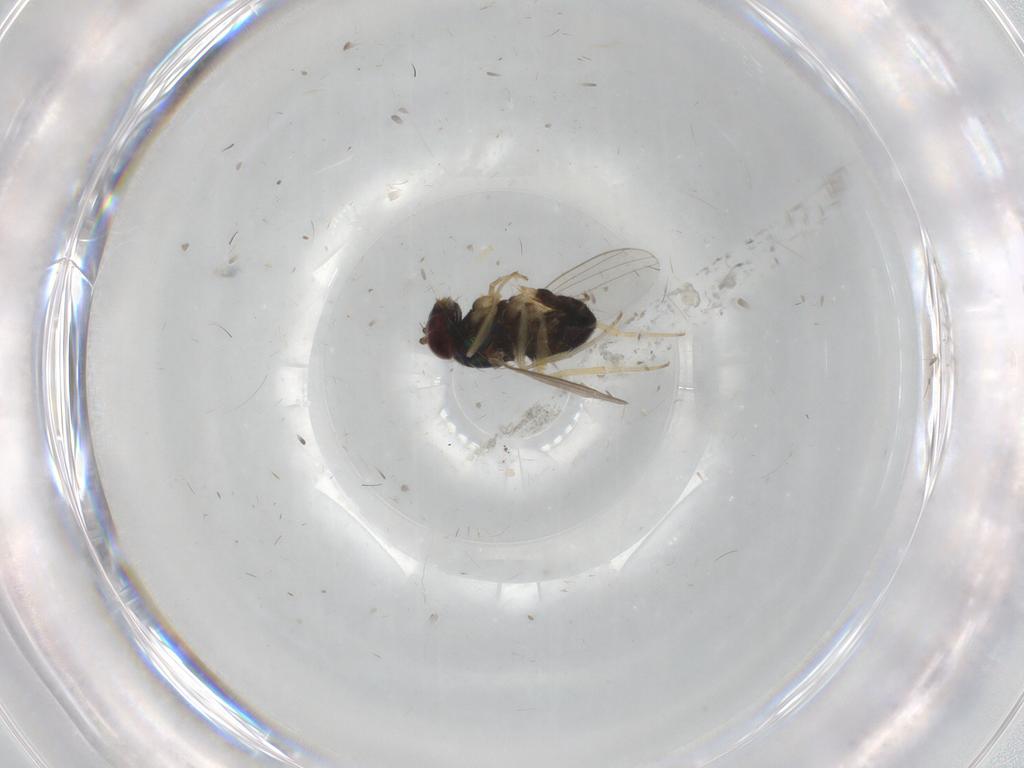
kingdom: Animalia
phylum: Arthropoda
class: Insecta
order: Diptera
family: Dolichopodidae
